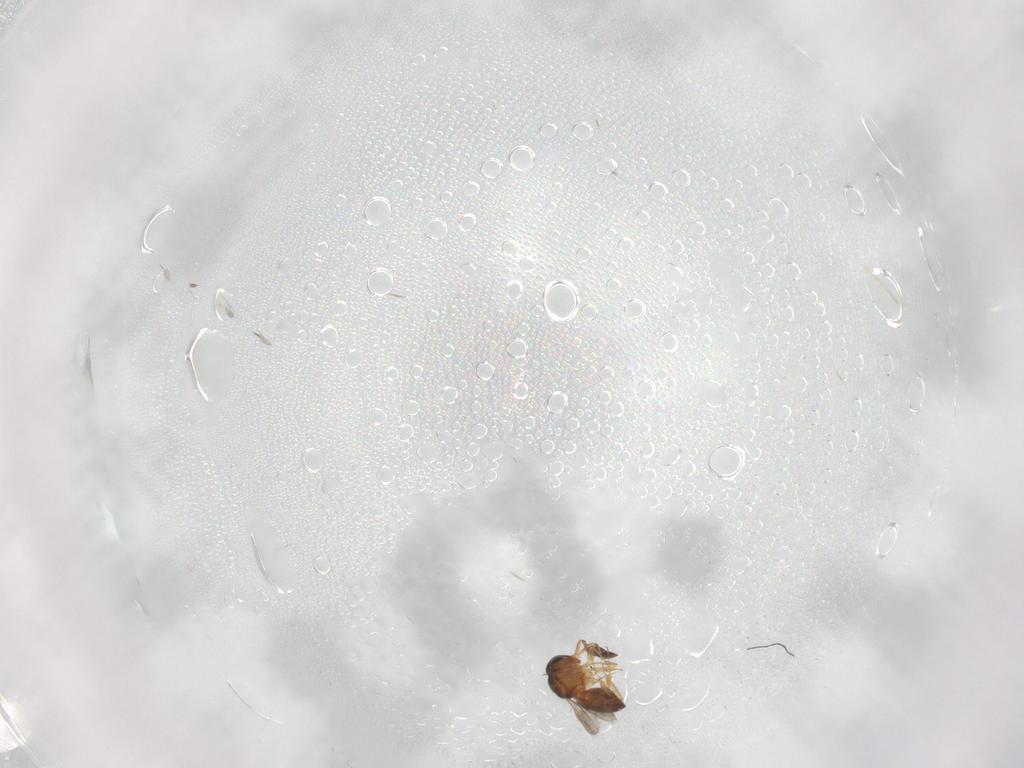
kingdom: Animalia
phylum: Arthropoda
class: Insecta
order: Hymenoptera
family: Scelionidae
